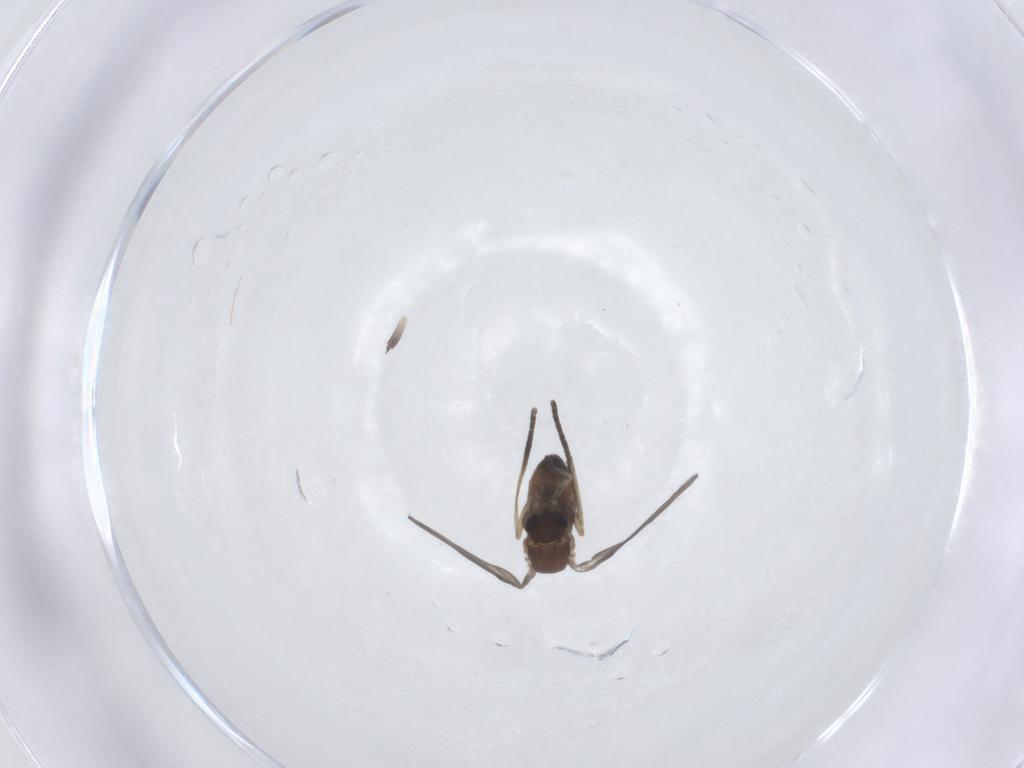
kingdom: Animalia
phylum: Arthropoda
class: Insecta
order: Diptera
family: Psychodidae
